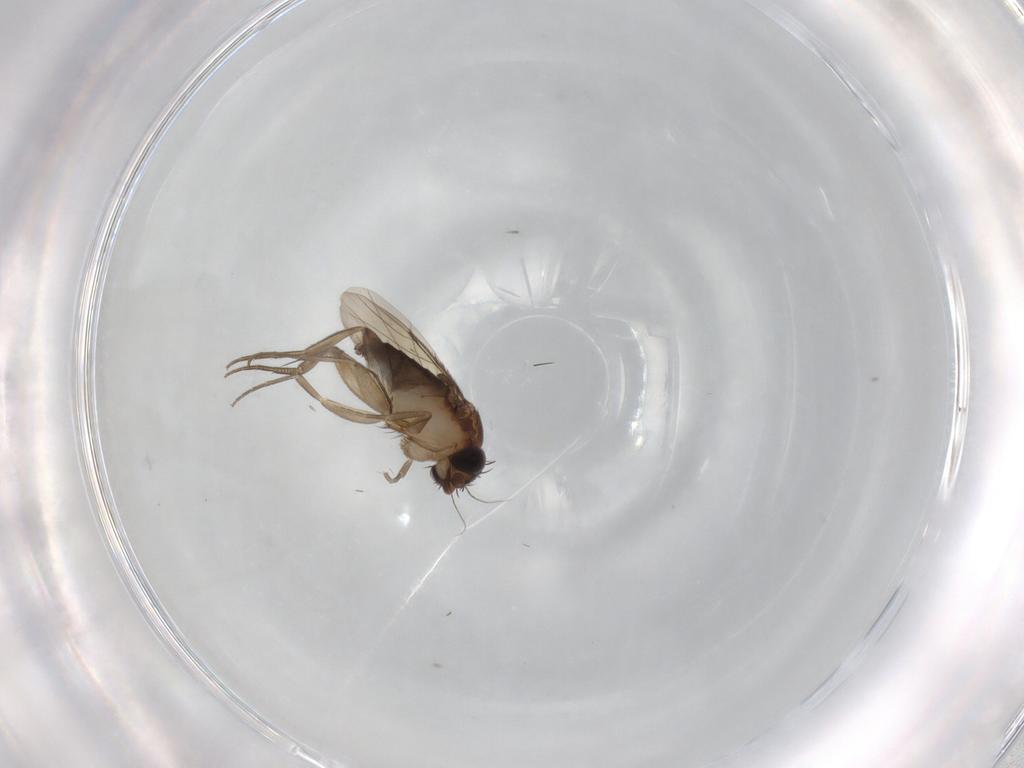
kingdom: Animalia
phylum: Arthropoda
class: Insecta
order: Diptera
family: Phoridae
